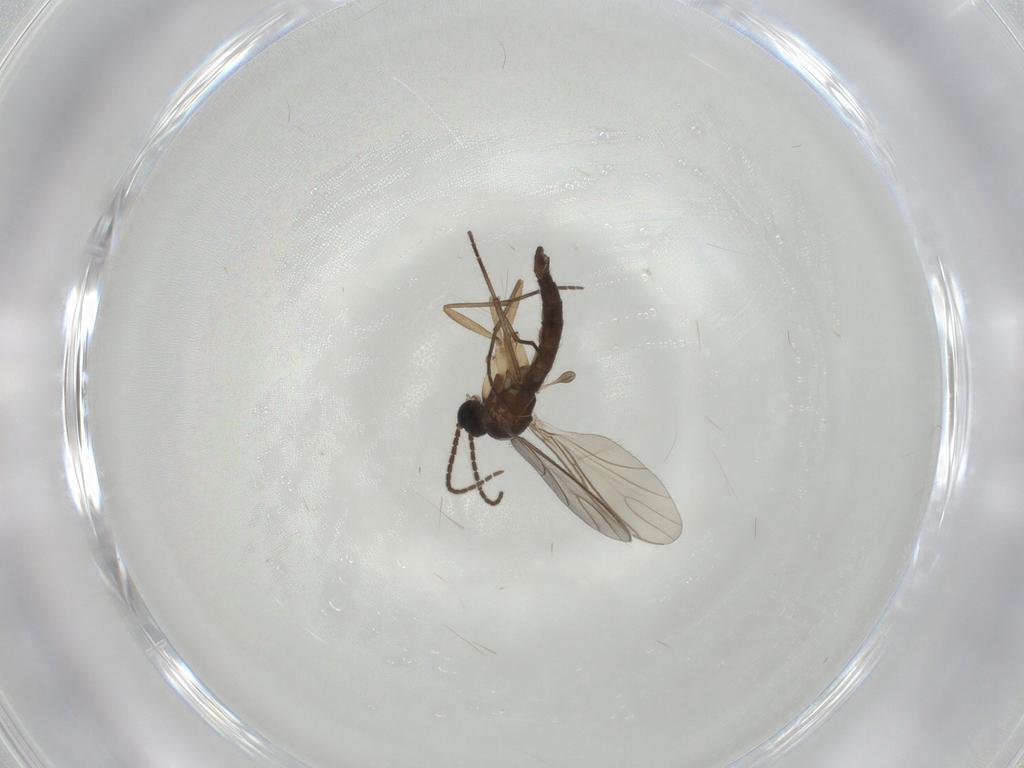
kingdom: Animalia
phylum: Arthropoda
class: Insecta
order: Diptera
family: Sciaridae
